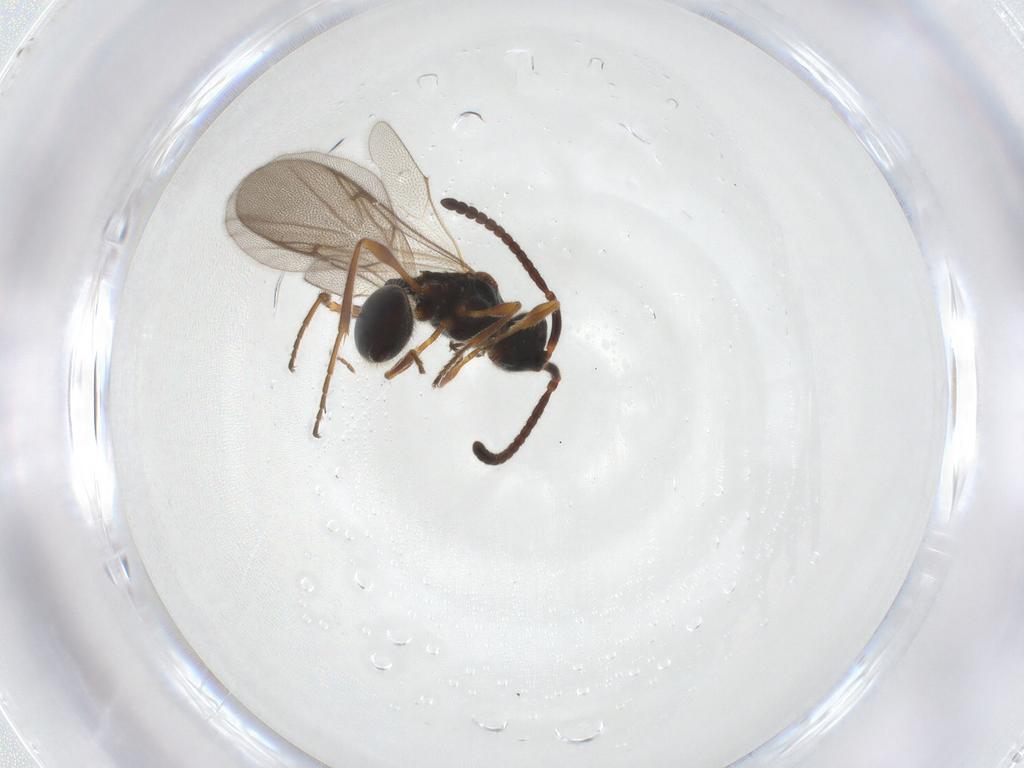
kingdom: Animalia
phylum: Arthropoda
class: Insecta
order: Hymenoptera
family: Diapriidae
